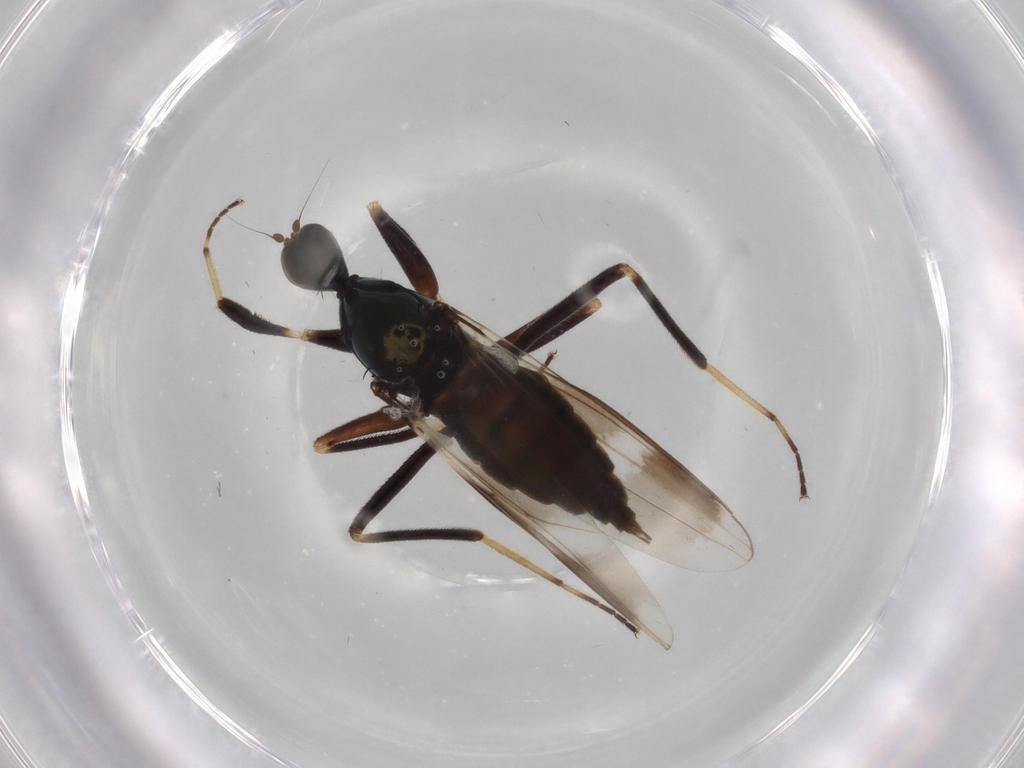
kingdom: Animalia
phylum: Arthropoda
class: Insecta
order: Diptera
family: Hybotidae
